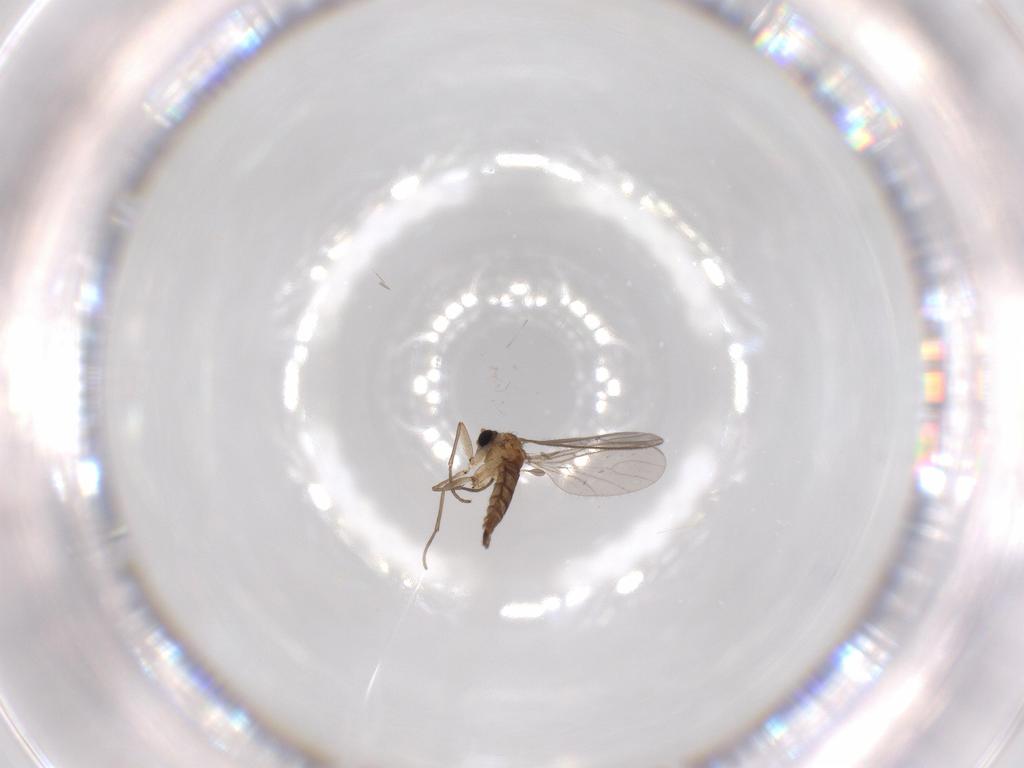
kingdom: Animalia
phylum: Arthropoda
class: Insecta
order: Diptera
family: Sciaridae
